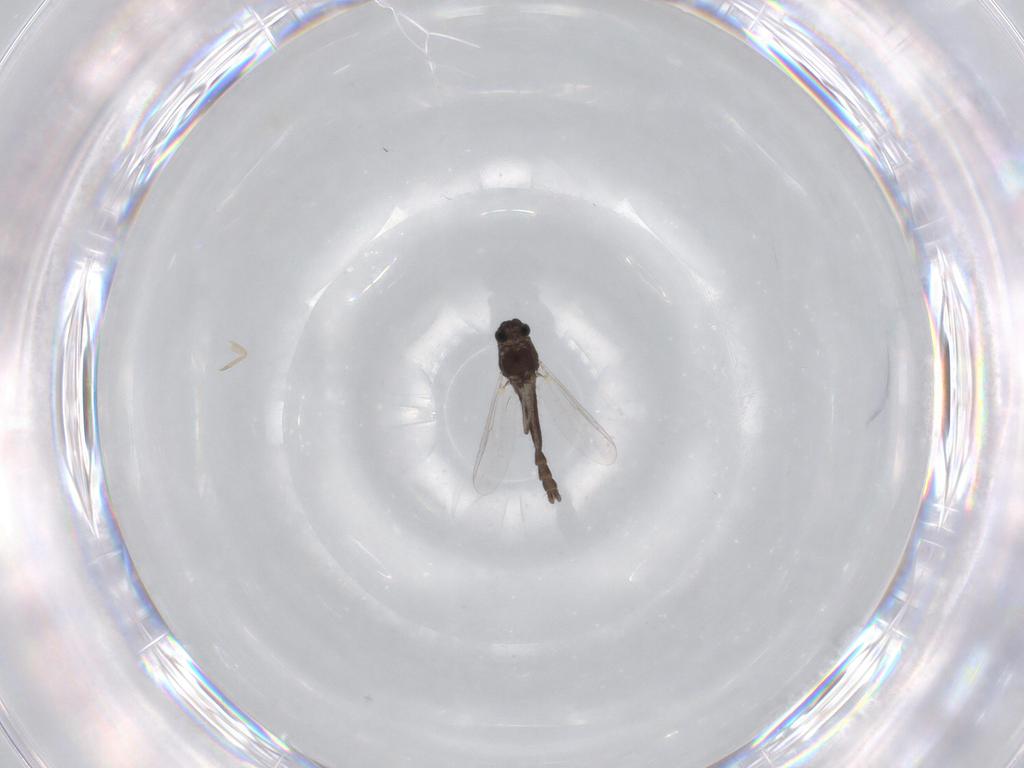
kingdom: Animalia
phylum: Arthropoda
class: Insecta
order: Diptera
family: Chironomidae
